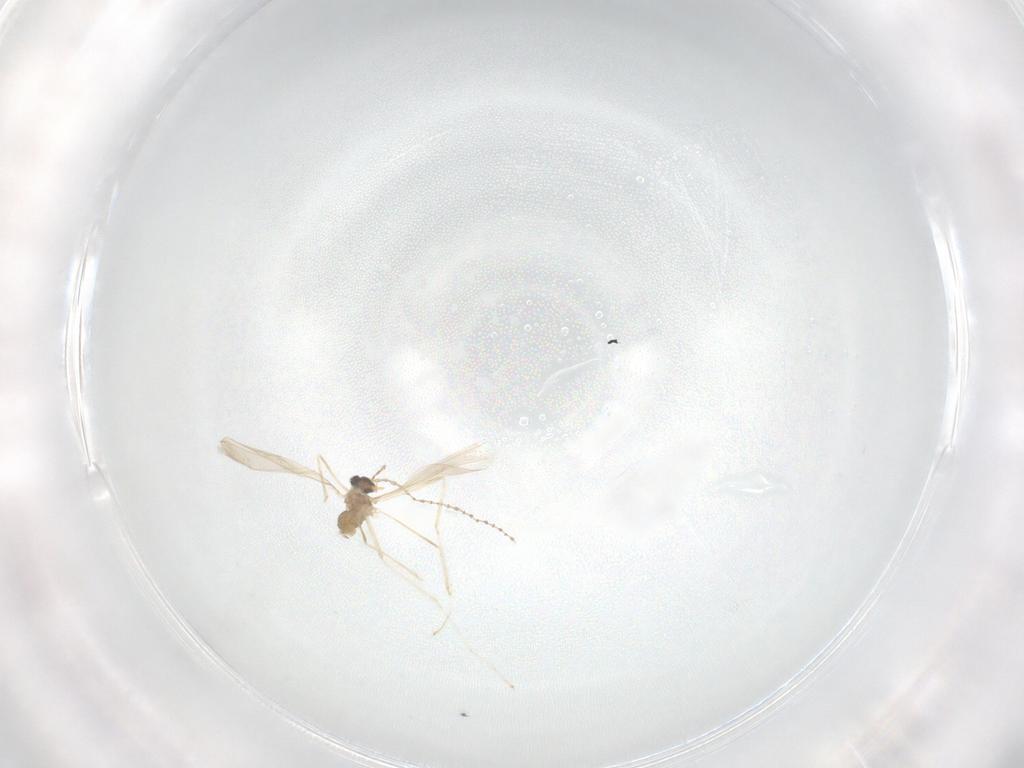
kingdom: Animalia
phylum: Arthropoda
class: Insecta
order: Diptera
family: Cecidomyiidae
